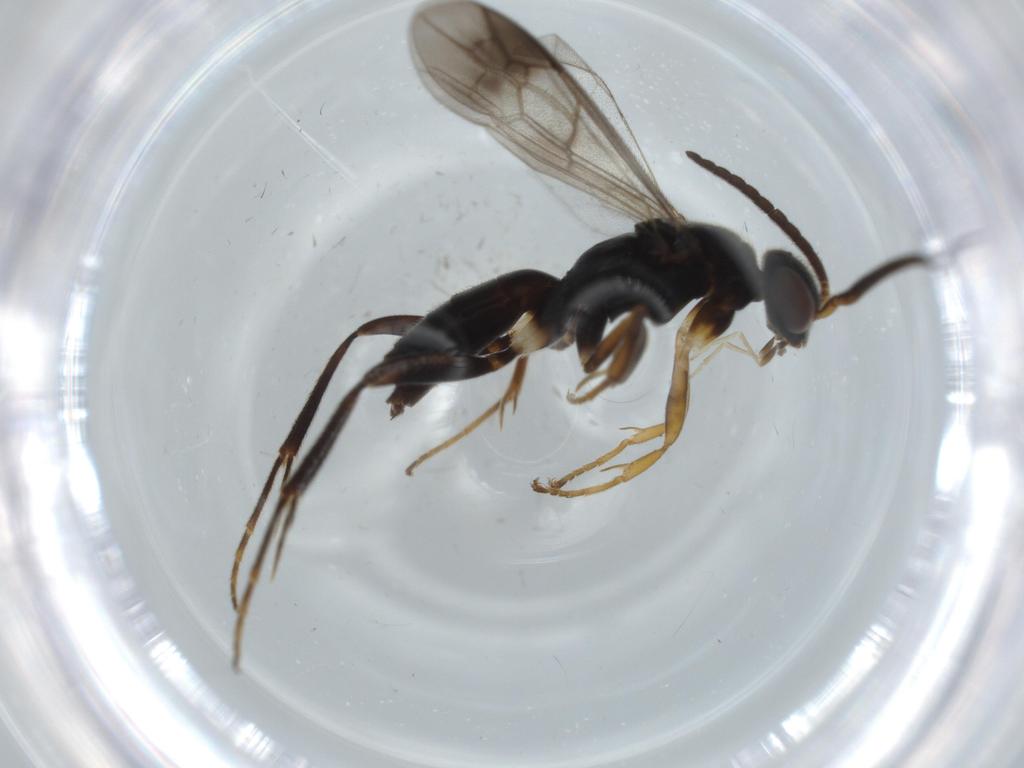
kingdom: Animalia
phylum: Arthropoda
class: Insecta
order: Hymenoptera
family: Mymaridae
